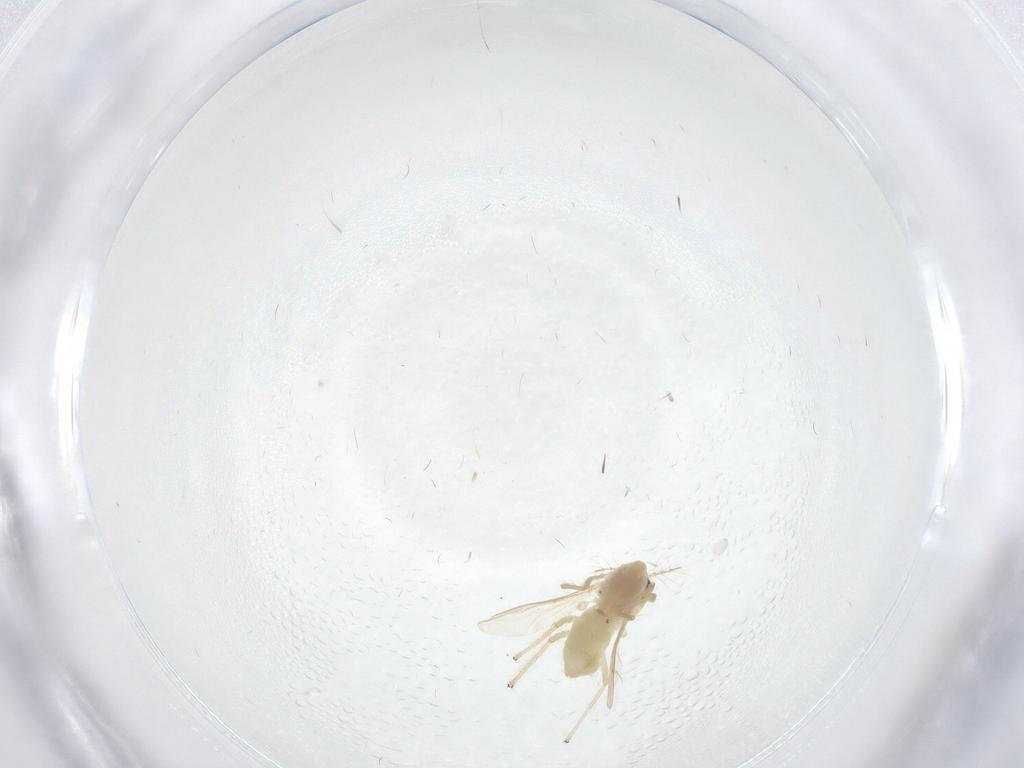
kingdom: Animalia
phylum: Arthropoda
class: Insecta
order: Diptera
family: Chironomidae
